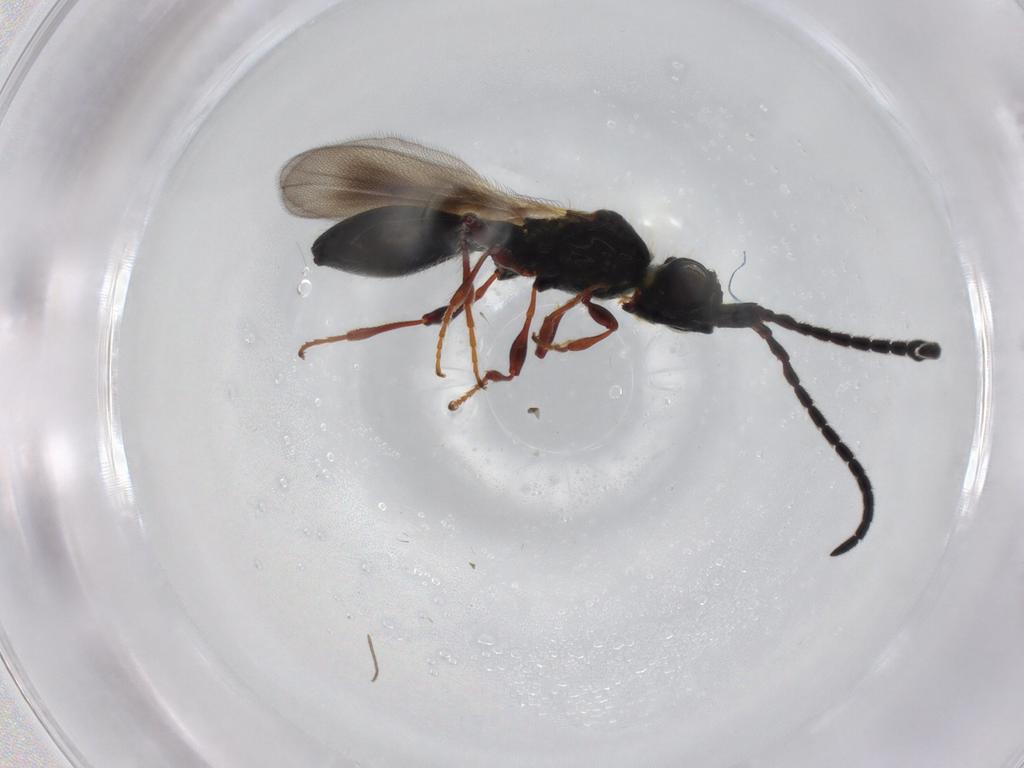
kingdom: Animalia
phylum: Arthropoda
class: Insecta
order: Hymenoptera
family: Diapriidae
